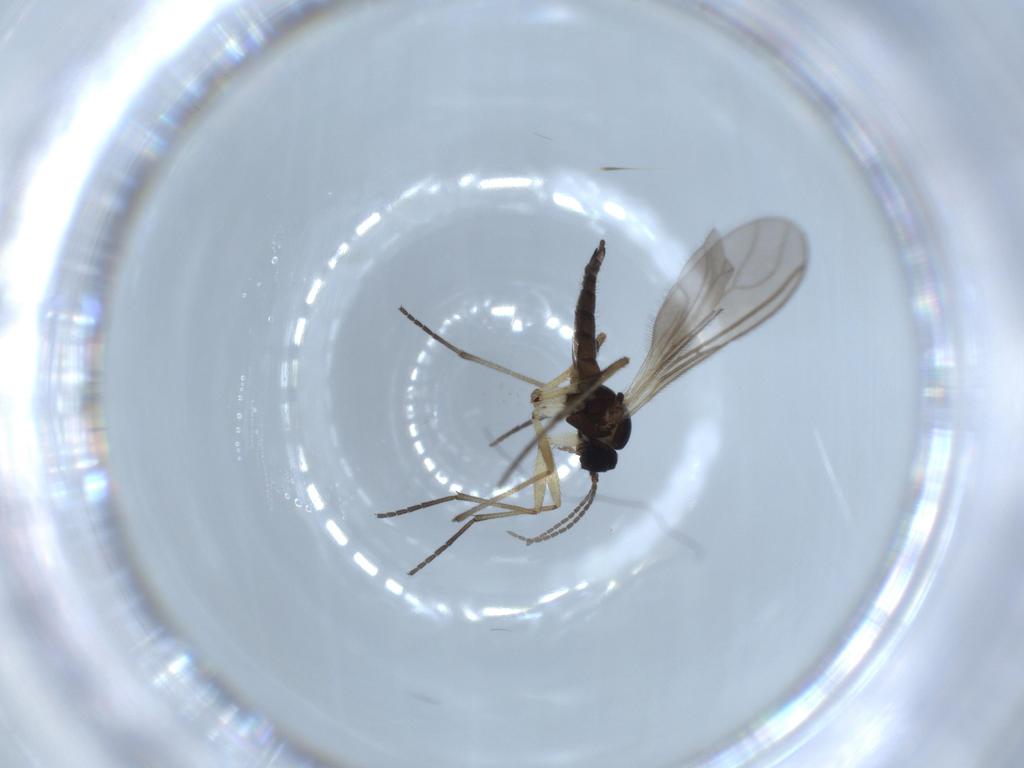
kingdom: Animalia
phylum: Arthropoda
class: Insecta
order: Diptera
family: Sciaridae
